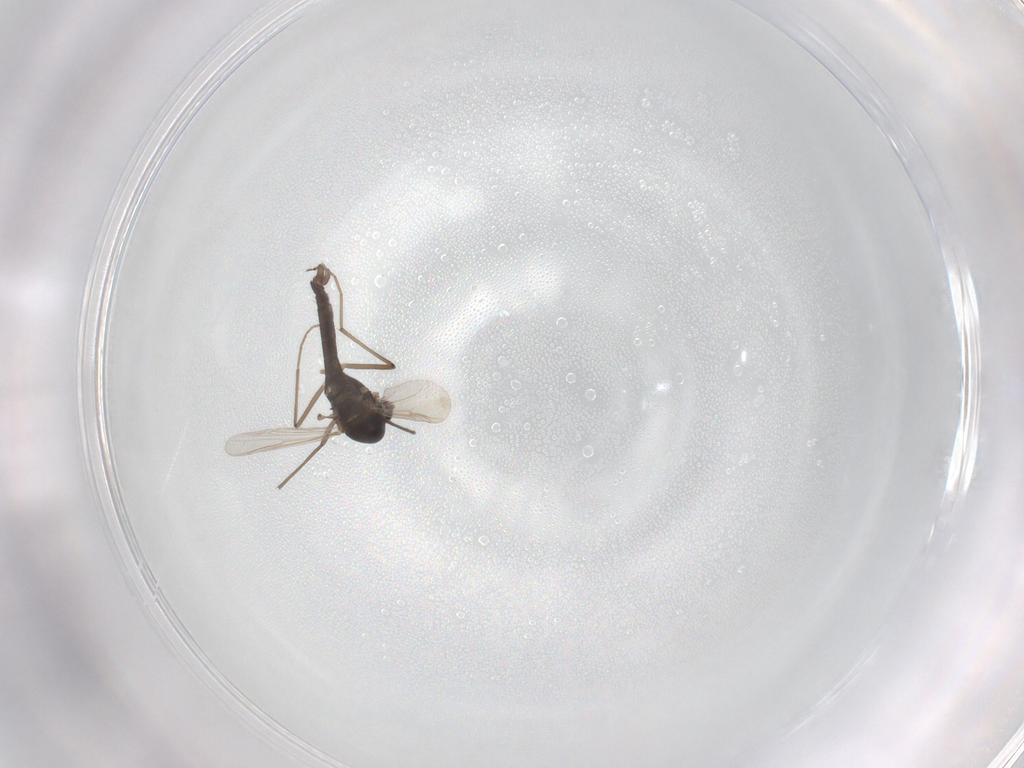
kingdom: Animalia
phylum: Arthropoda
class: Insecta
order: Diptera
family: Chironomidae
